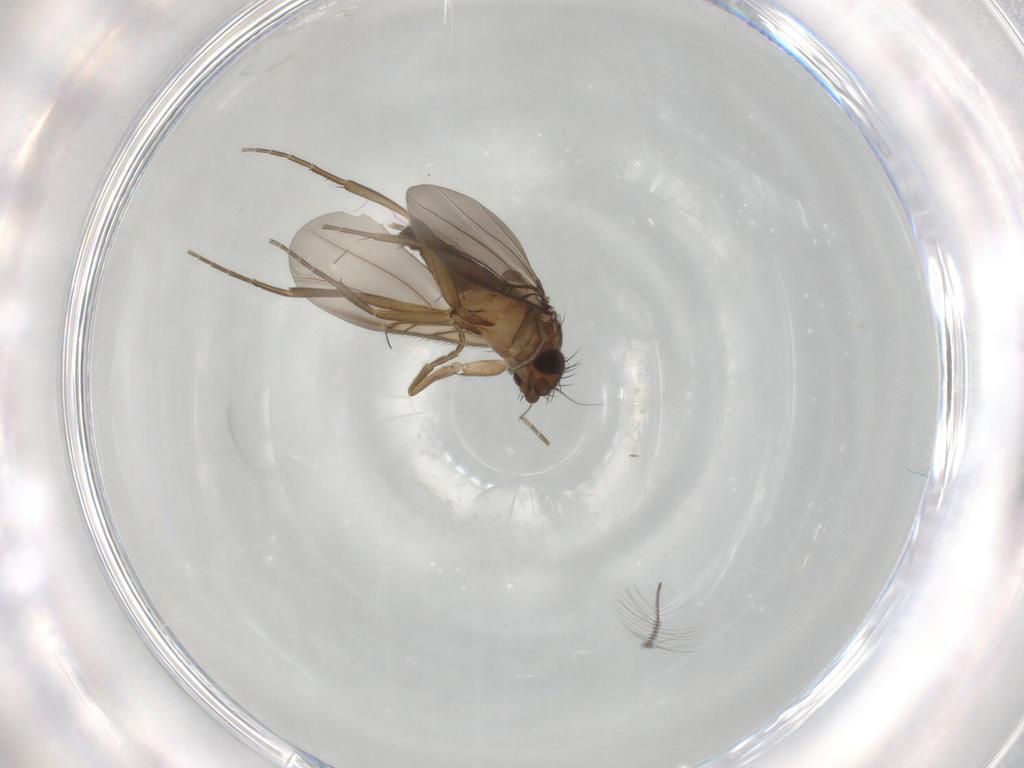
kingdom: Animalia
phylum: Arthropoda
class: Insecta
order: Diptera
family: Phoridae
